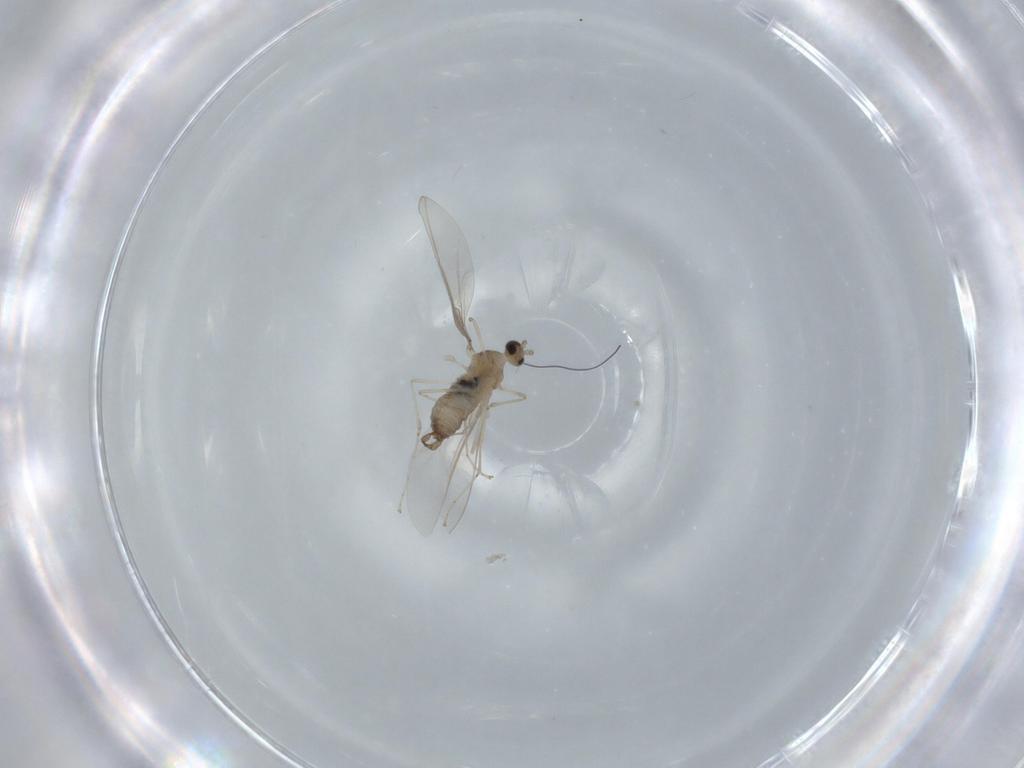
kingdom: Animalia
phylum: Arthropoda
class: Insecta
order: Diptera
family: Cecidomyiidae
